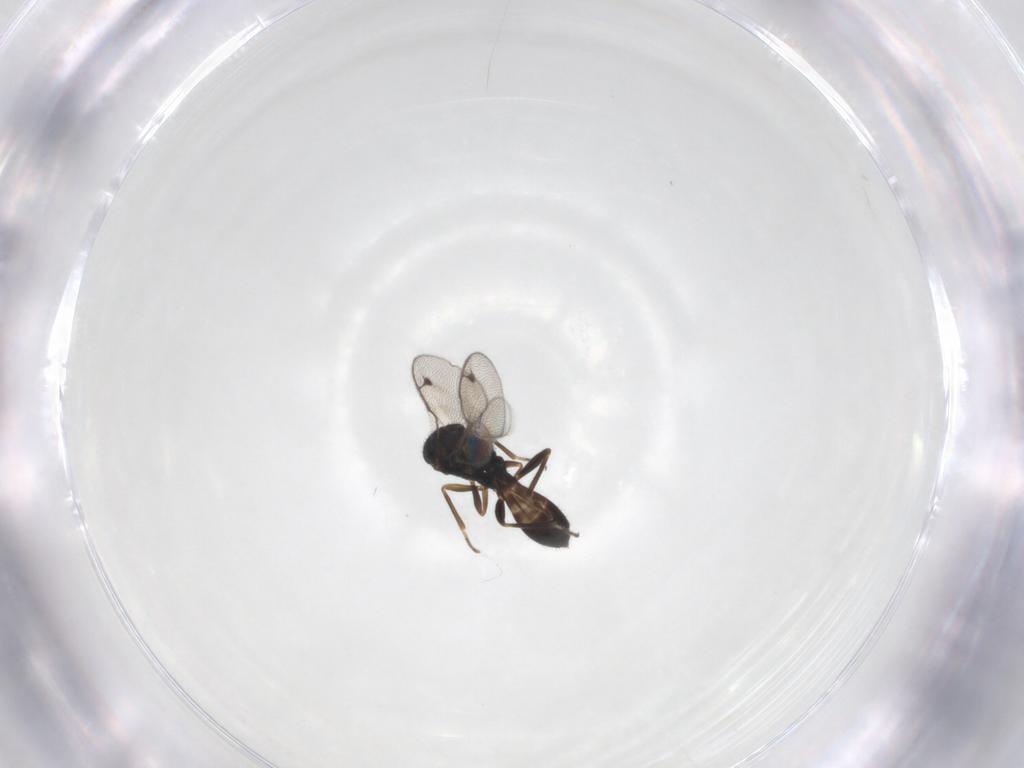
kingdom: Animalia
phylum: Arthropoda
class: Insecta
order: Hymenoptera
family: Pteromalidae
